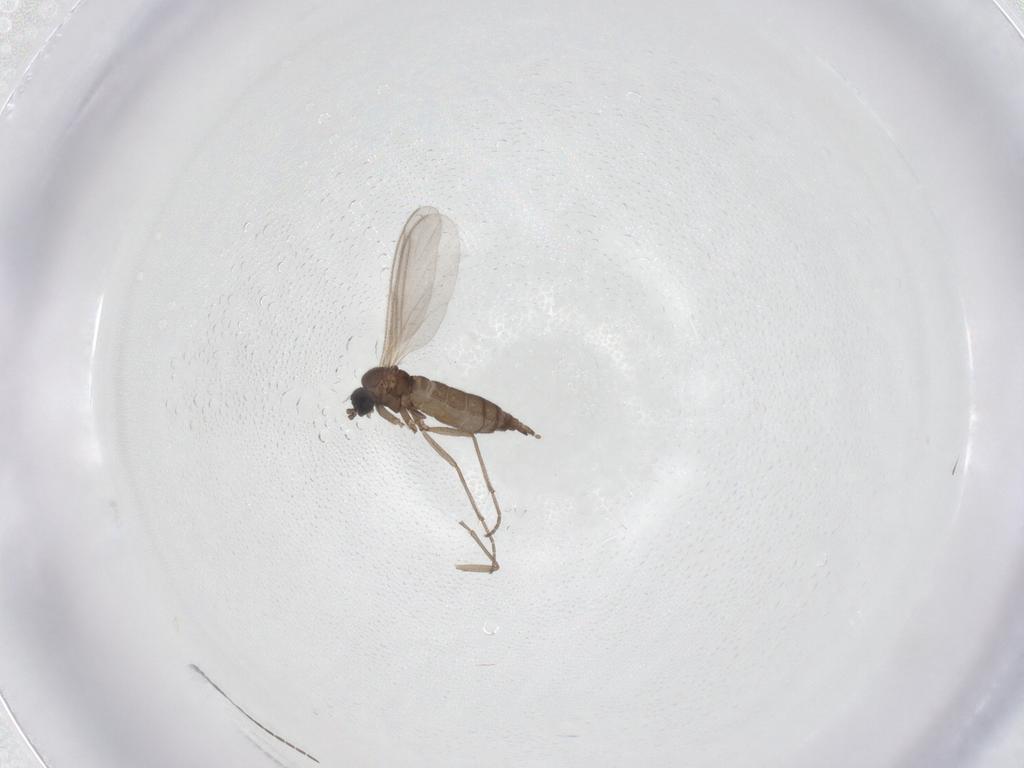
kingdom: Animalia
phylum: Arthropoda
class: Insecta
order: Diptera
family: Sciaridae
